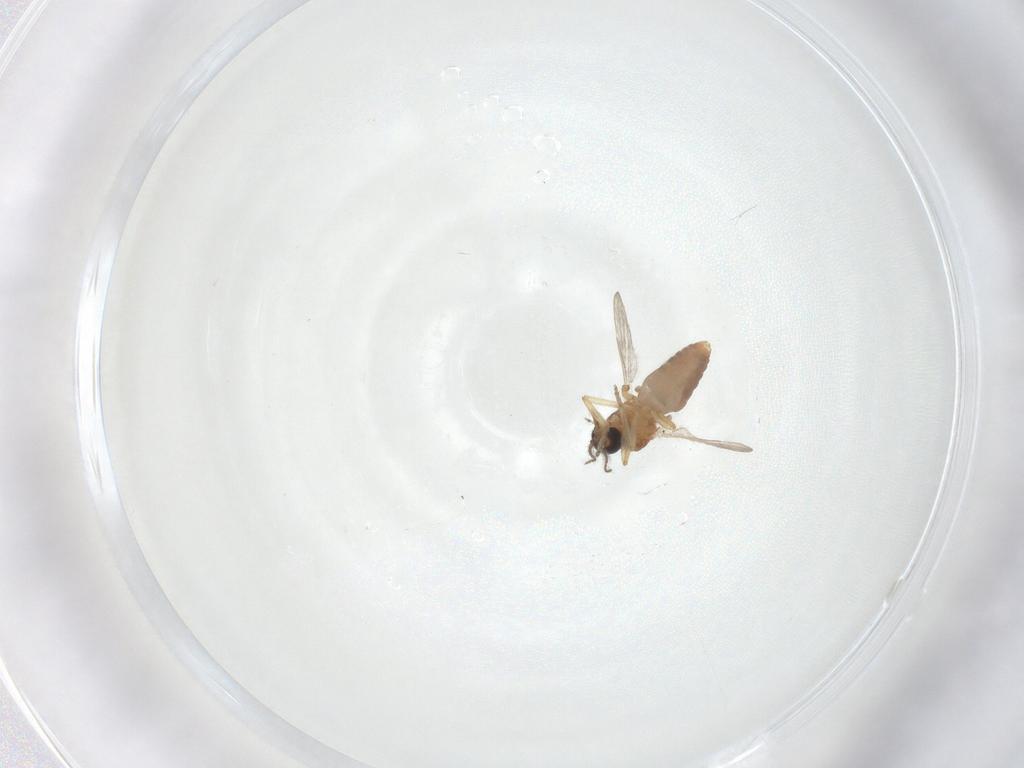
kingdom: Animalia
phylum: Arthropoda
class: Insecta
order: Diptera
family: Ceratopogonidae
